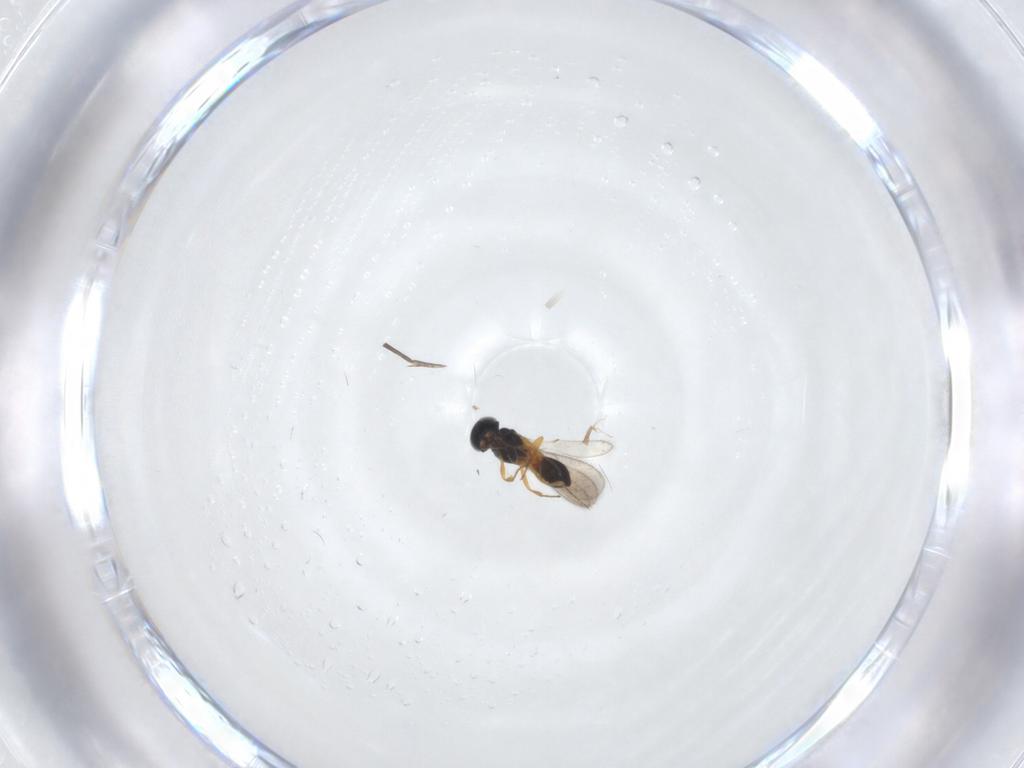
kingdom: Animalia
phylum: Arthropoda
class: Insecta
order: Hymenoptera
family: Scelionidae
